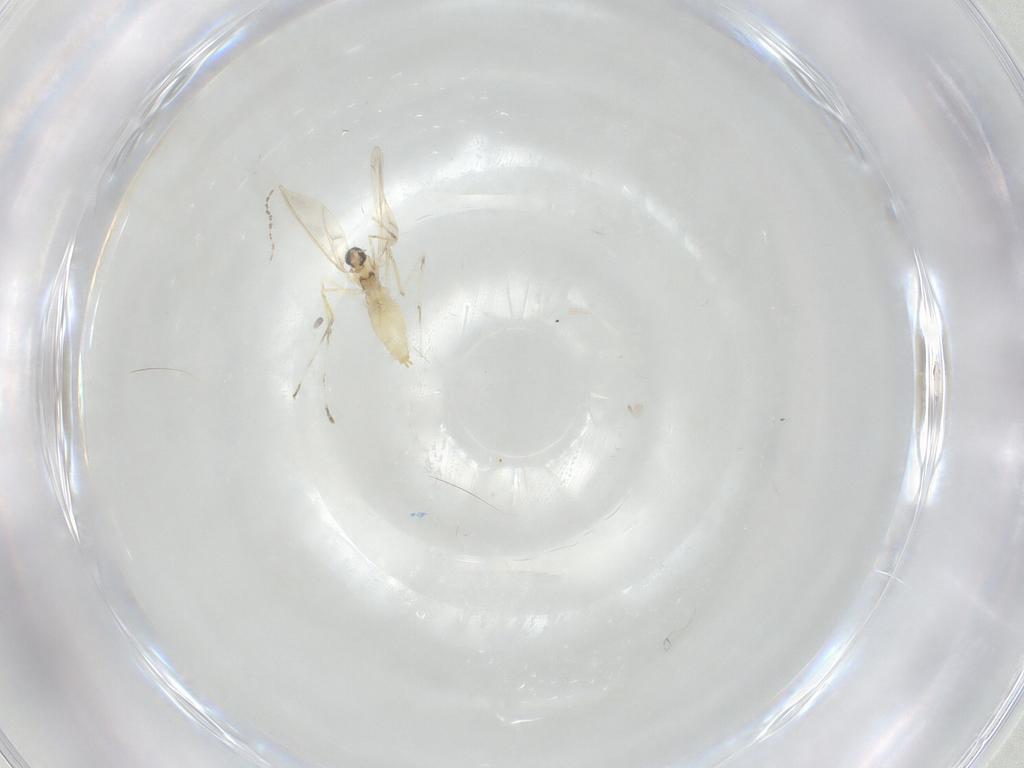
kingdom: Animalia
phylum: Arthropoda
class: Insecta
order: Diptera
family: Cecidomyiidae
